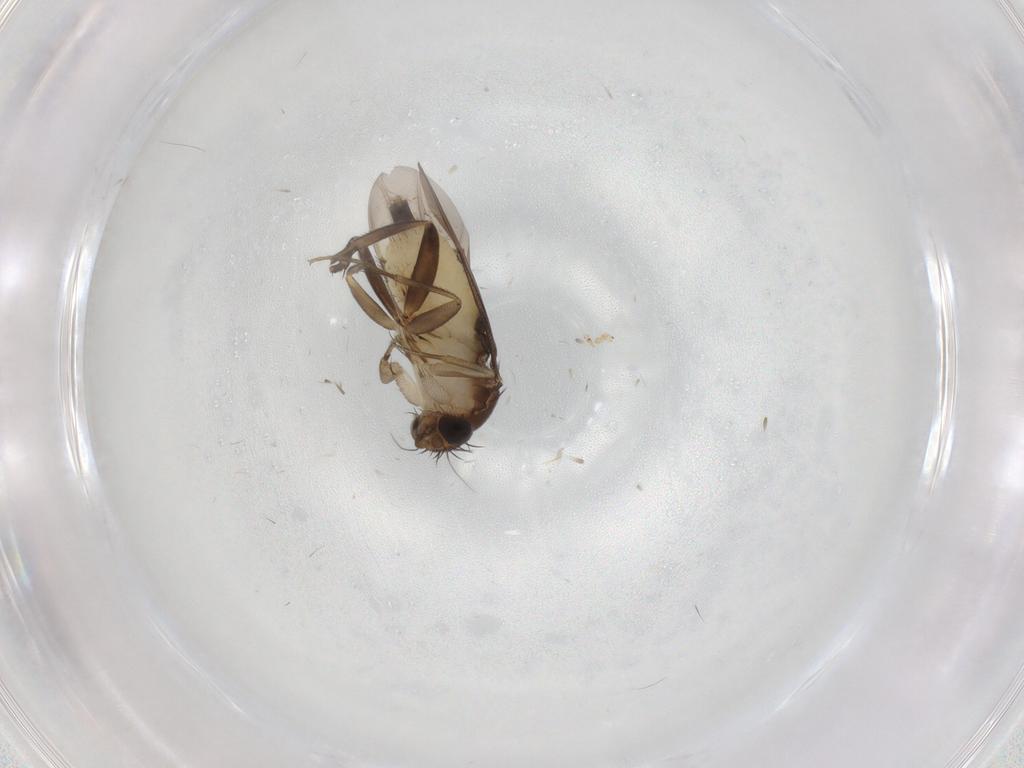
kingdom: Animalia
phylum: Arthropoda
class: Insecta
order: Diptera
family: Phoridae
